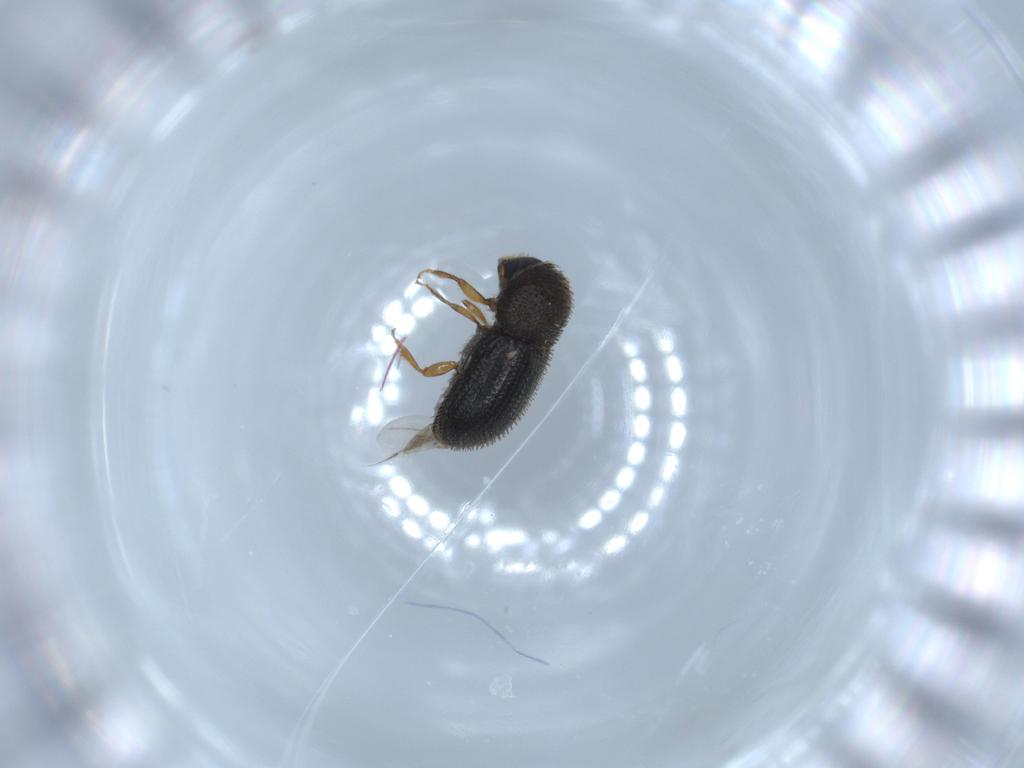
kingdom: Animalia
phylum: Arthropoda
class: Insecta
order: Coleoptera
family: Curculionidae
